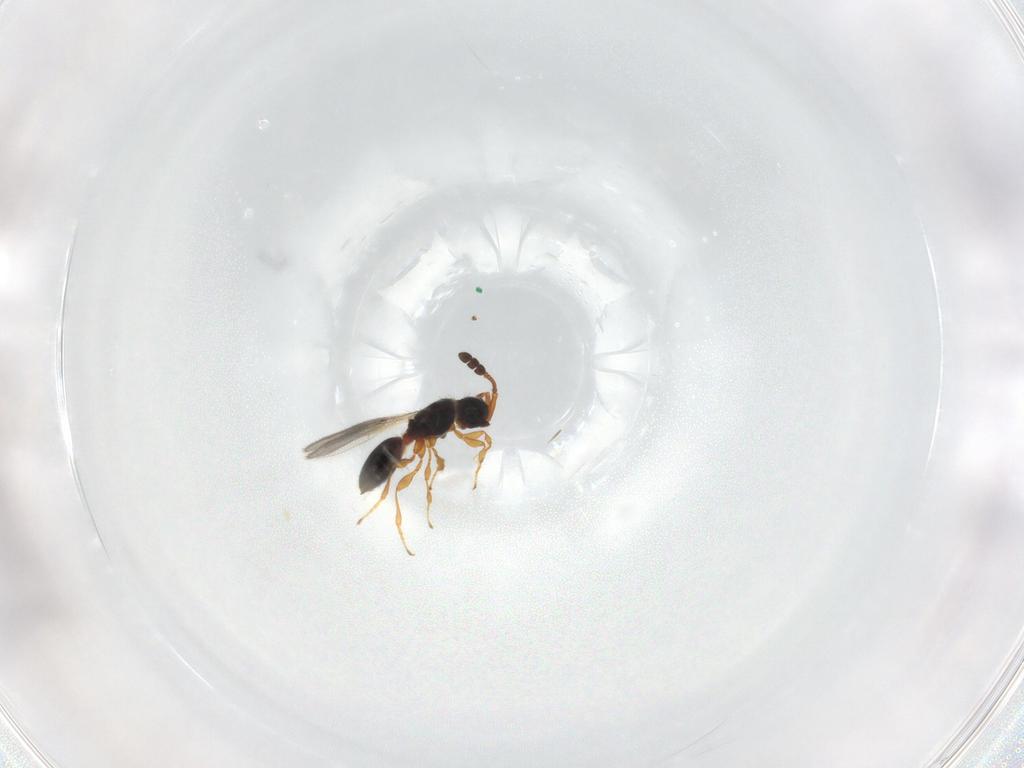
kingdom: Animalia
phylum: Arthropoda
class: Insecta
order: Hymenoptera
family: Diapriidae
